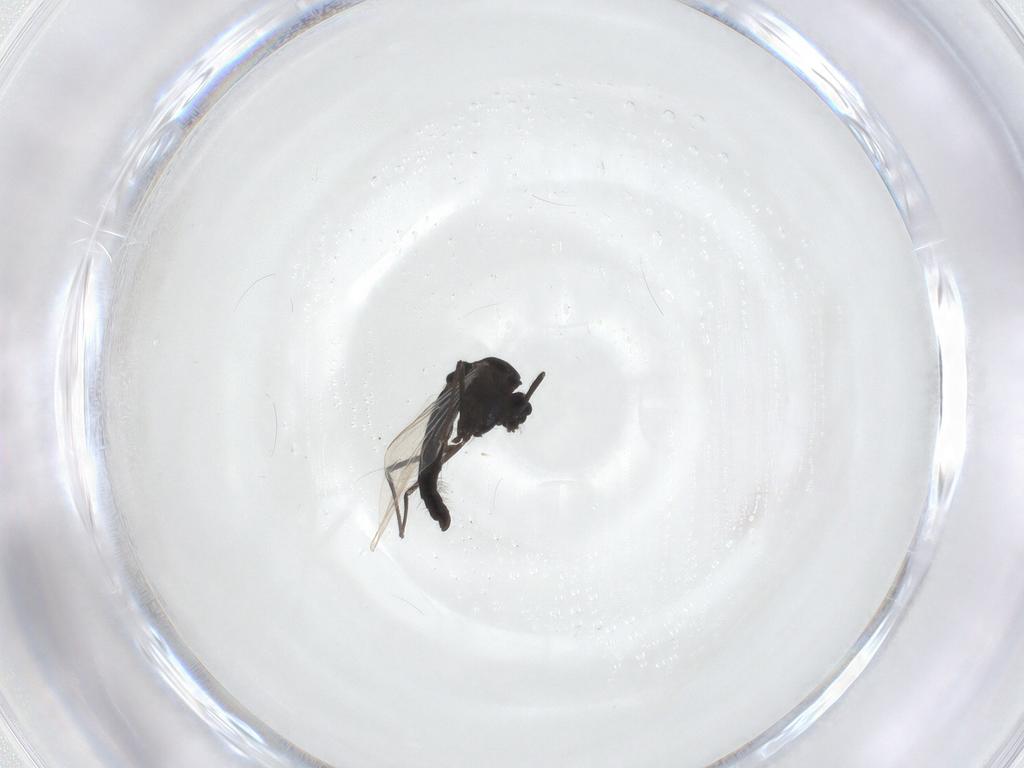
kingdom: Animalia
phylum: Arthropoda
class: Insecta
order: Diptera
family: Chironomidae
